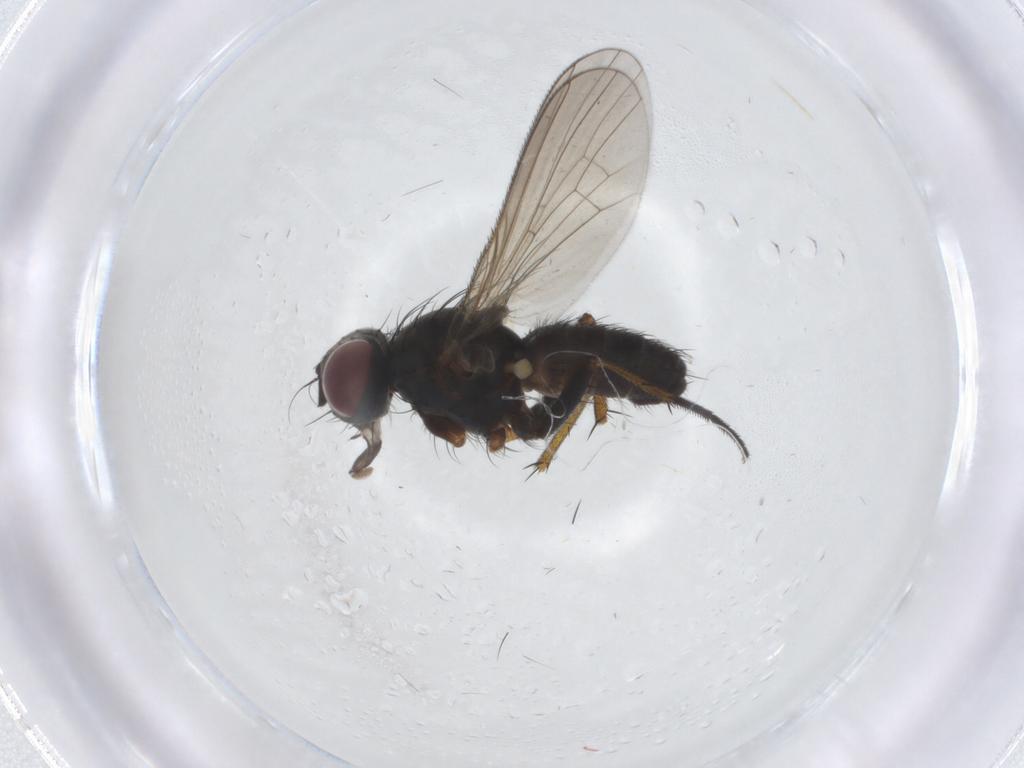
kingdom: Animalia
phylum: Arthropoda
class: Insecta
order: Diptera
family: Muscidae
